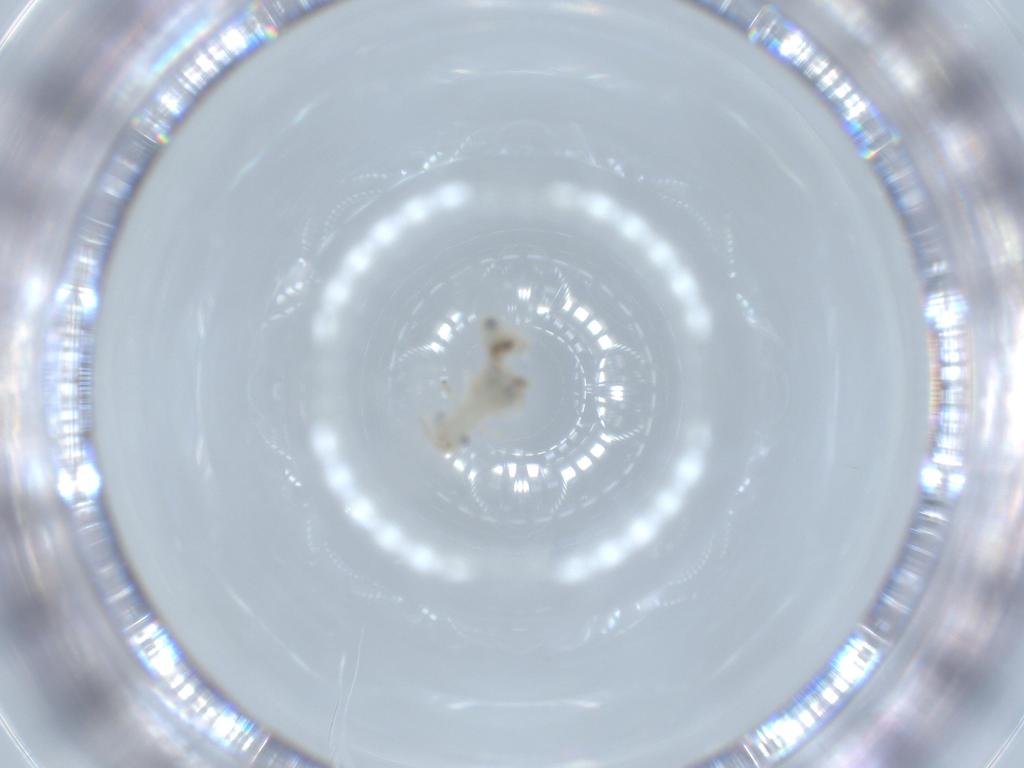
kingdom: Animalia
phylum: Arthropoda
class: Insecta
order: Psocodea
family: Caeciliusidae
